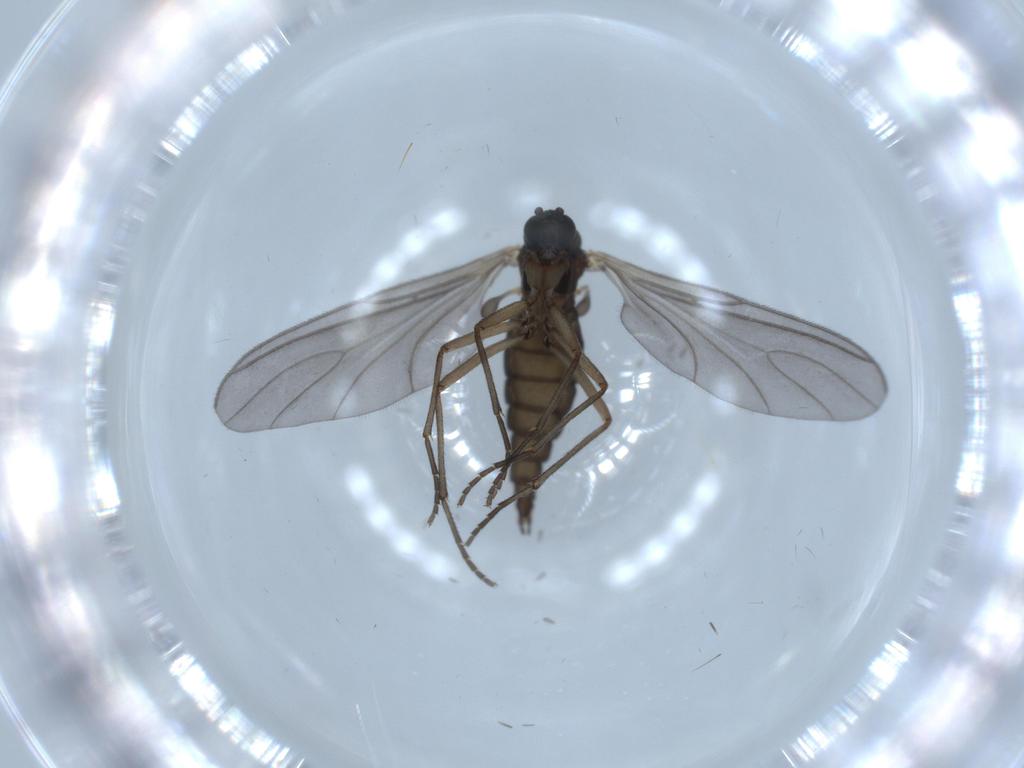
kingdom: Animalia
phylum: Arthropoda
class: Insecta
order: Diptera
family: Sciaridae
